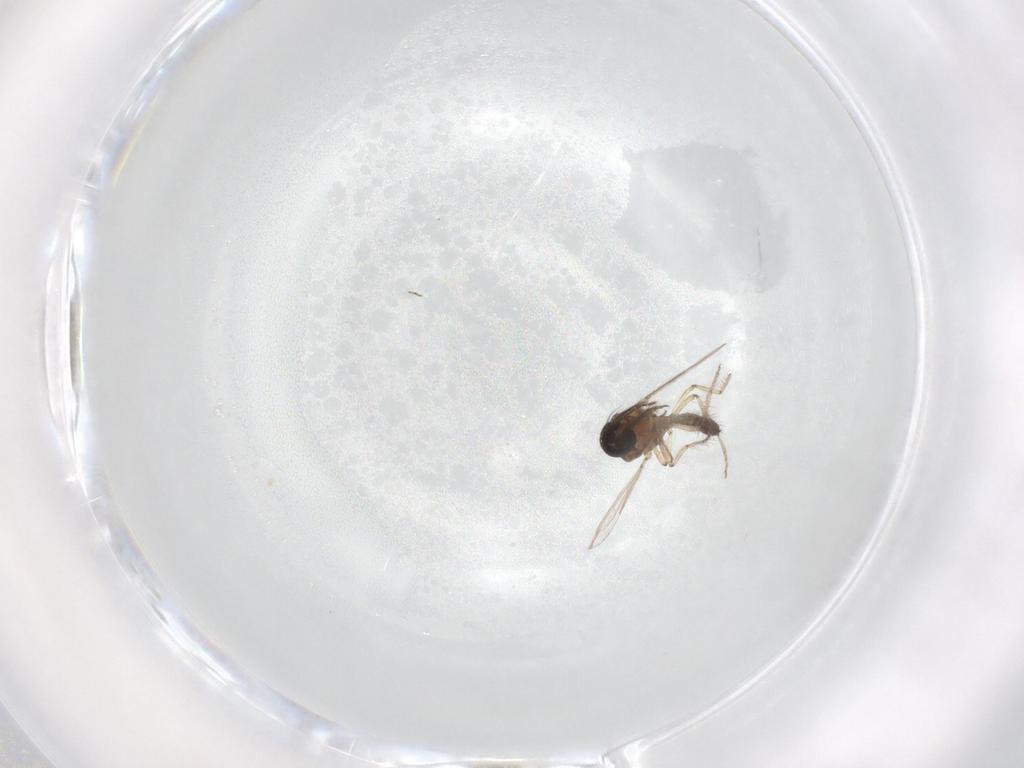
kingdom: Animalia
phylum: Arthropoda
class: Insecta
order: Diptera
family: Ceratopogonidae
